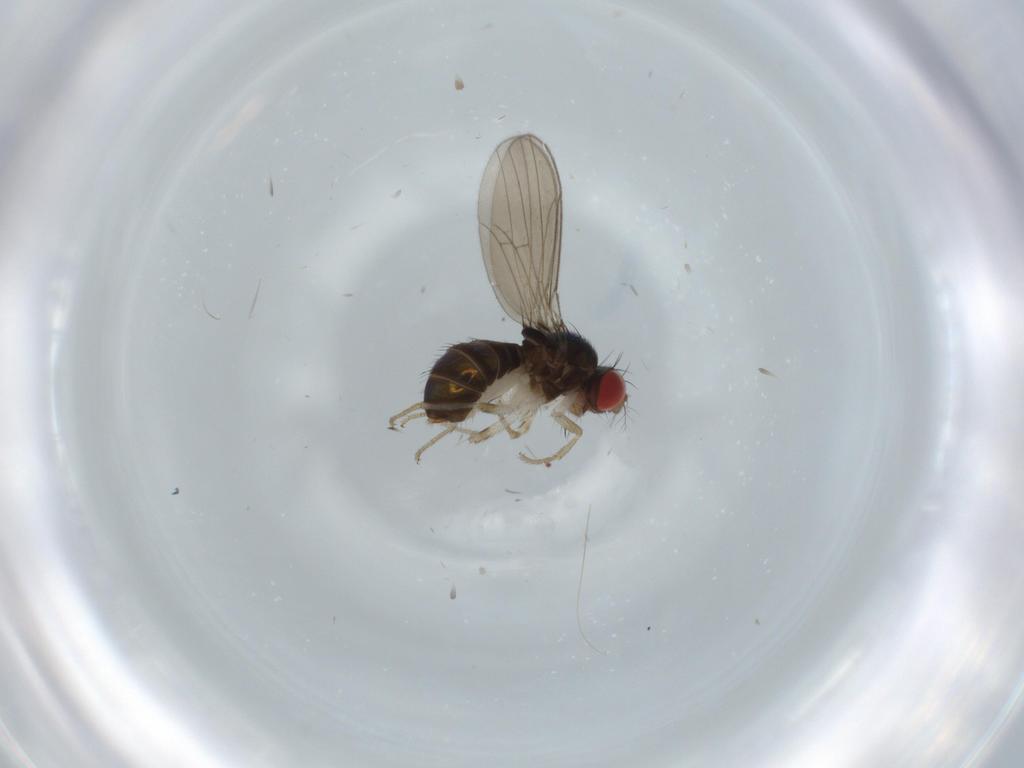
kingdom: Animalia
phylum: Arthropoda
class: Insecta
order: Diptera
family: Drosophilidae
